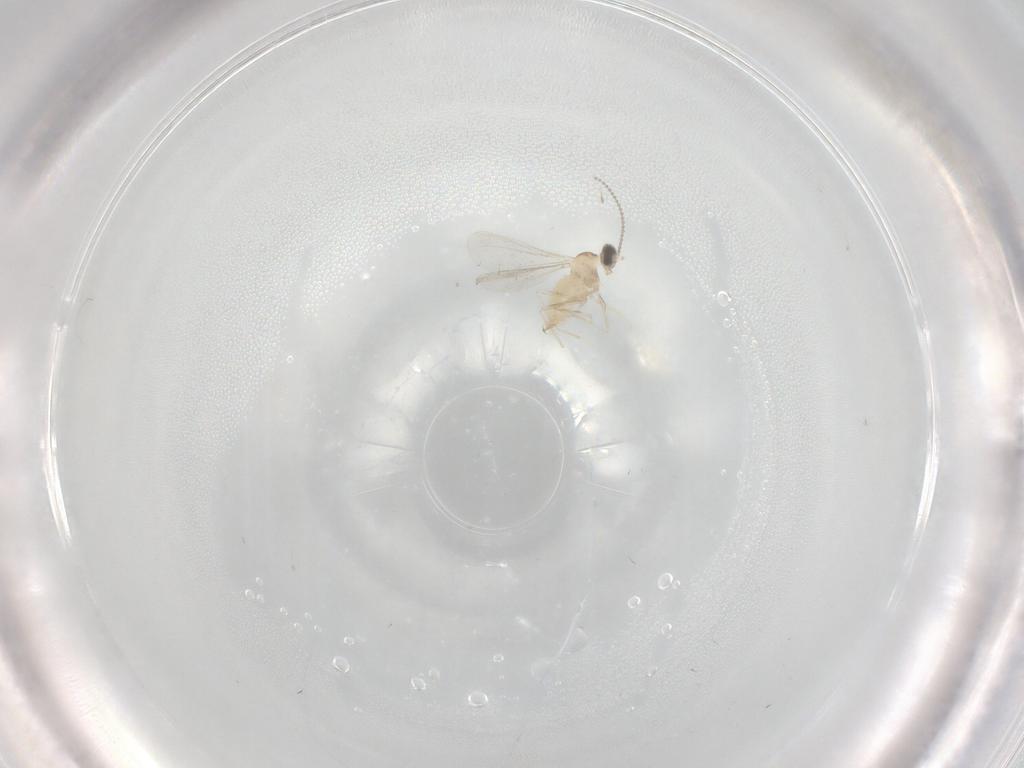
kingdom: Animalia
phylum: Arthropoda
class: Insecta
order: Diptera
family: Cecidomyiidae
